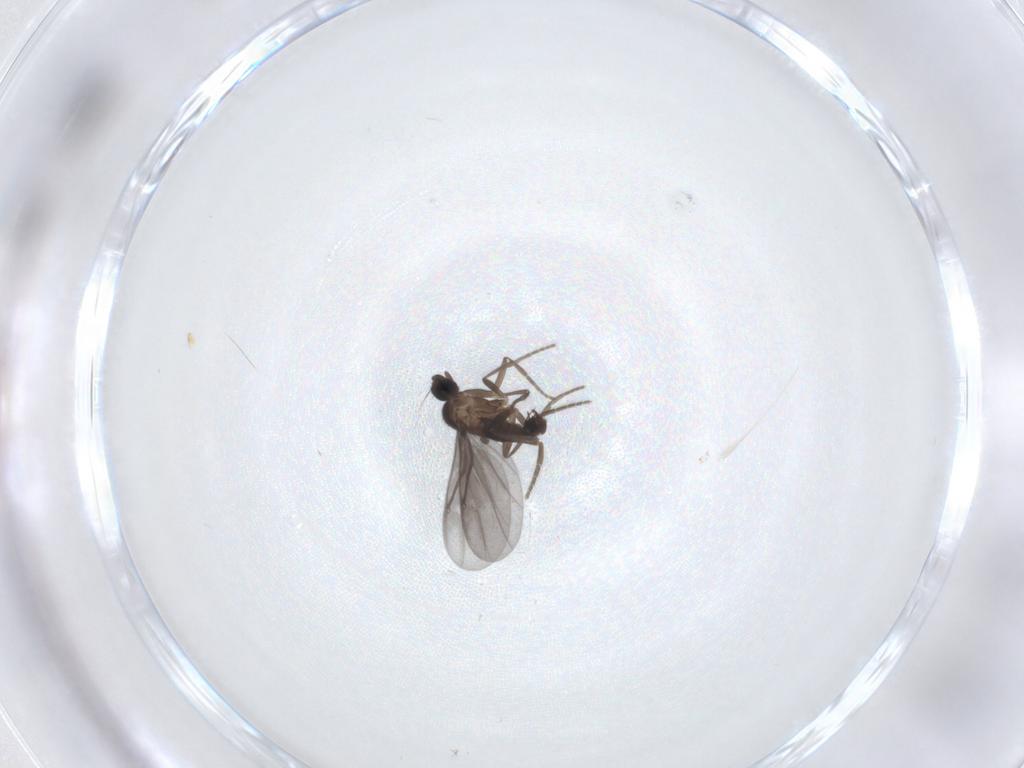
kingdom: Animalia
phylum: Arthropoda
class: Insecta
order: Diptera
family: Phoridae
